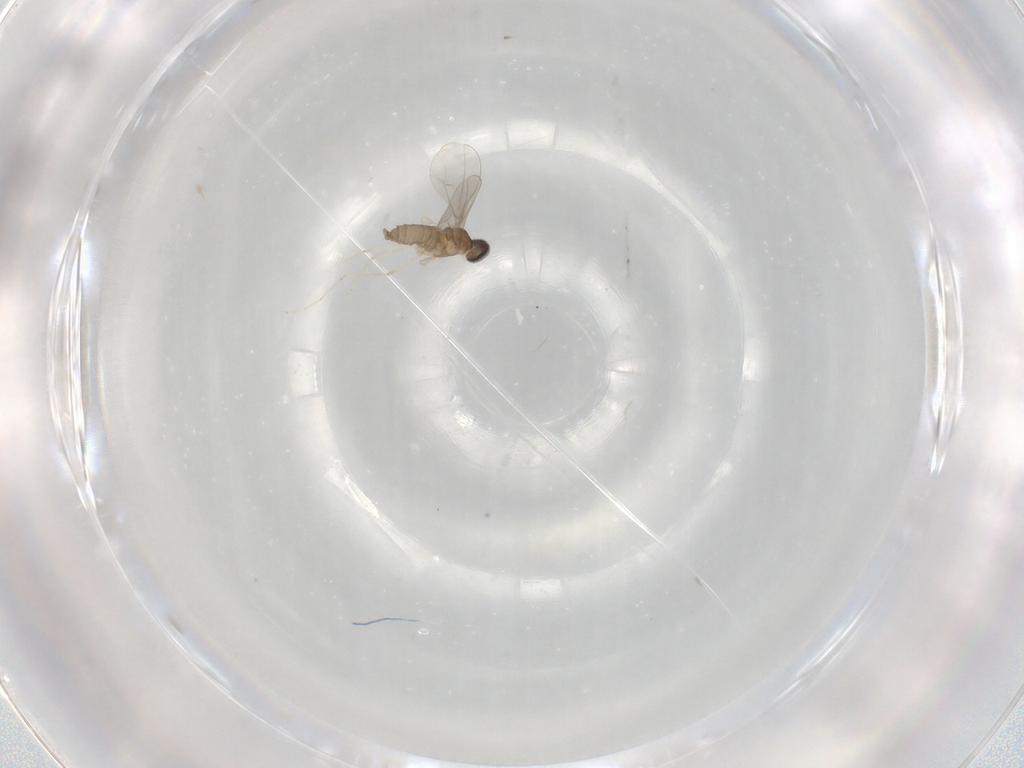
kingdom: Animalia
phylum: Arthropoda
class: Insecta
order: Diptera
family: Cecidomyiidae
